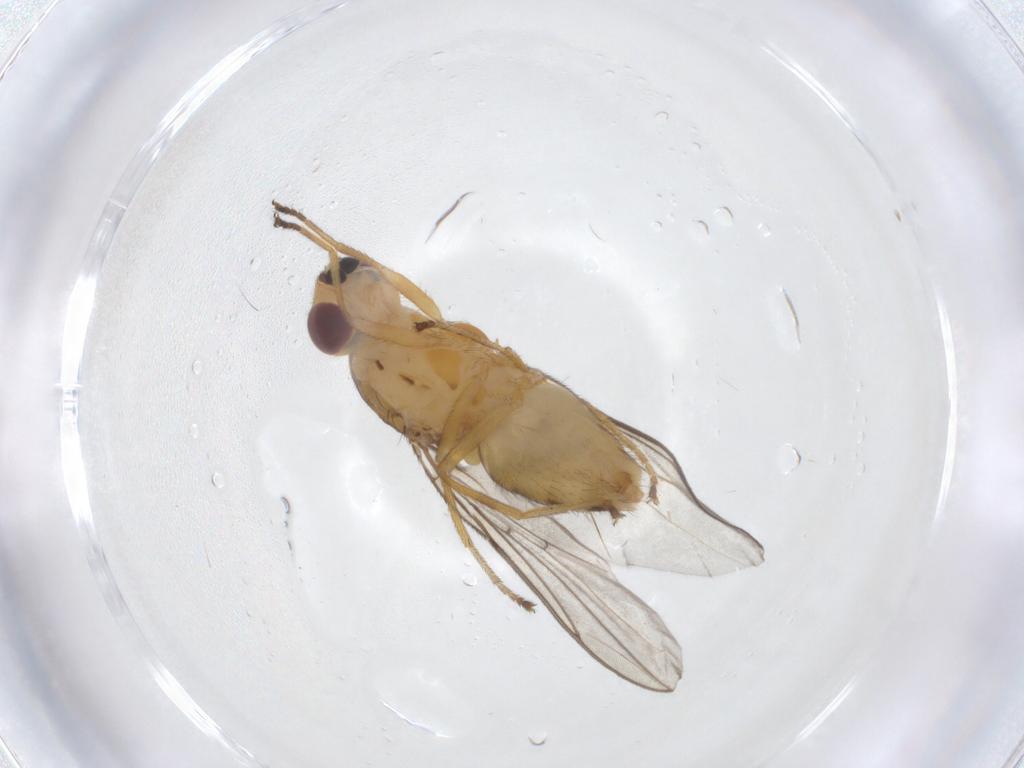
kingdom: Animalia
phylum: Arthropoda
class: Insecta
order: Diptera
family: Chloropidae
